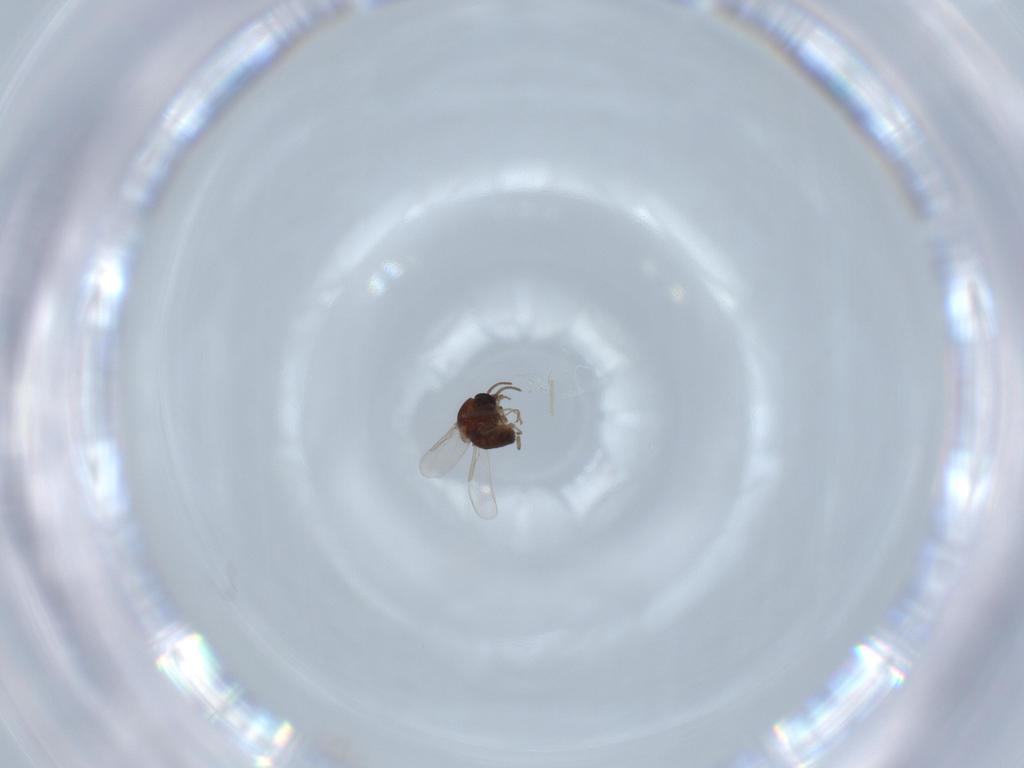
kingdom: Animalia
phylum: Arthropoda
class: Insecta
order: Diptera
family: Ceratopogonidae
